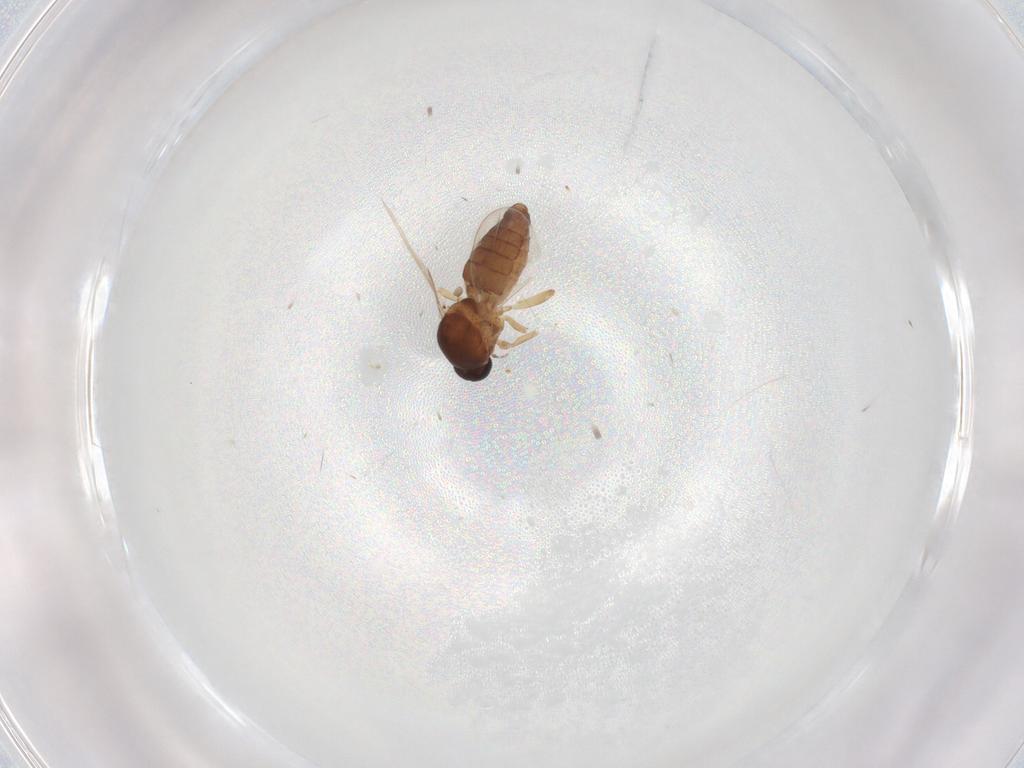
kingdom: Animalia
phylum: Arthropoda
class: Insecta
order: Diptera
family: Ceratopogonidae
